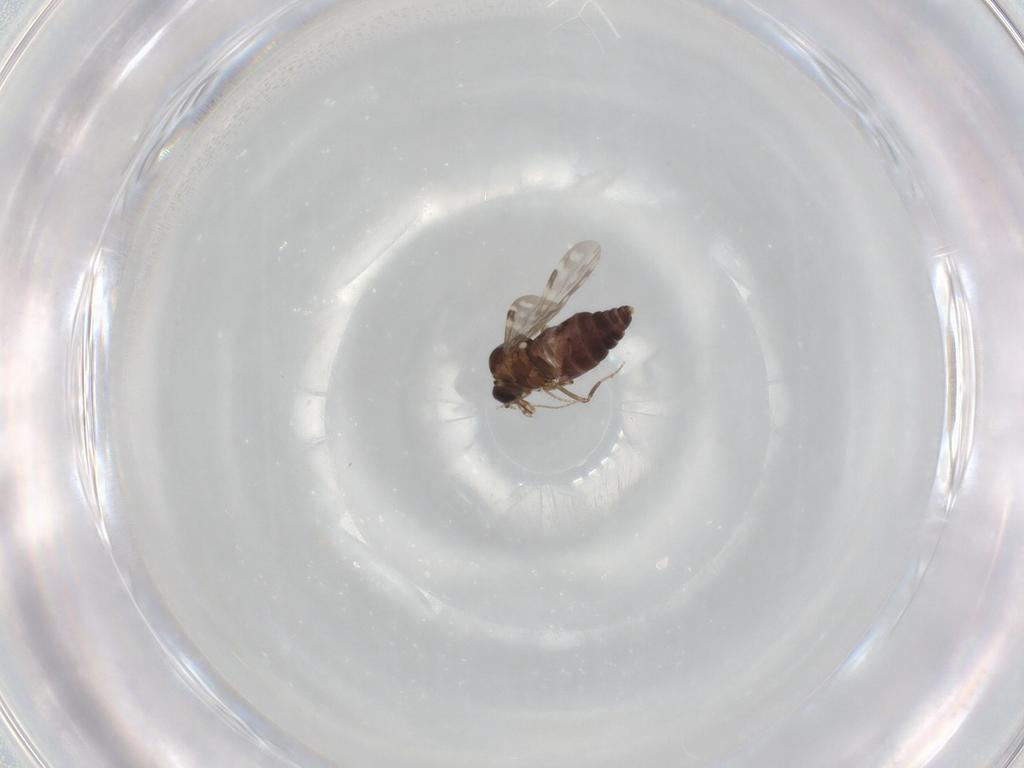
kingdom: Animalia
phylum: Arthropoda
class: Insecta
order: Diptera
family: Ceratopogonidae
